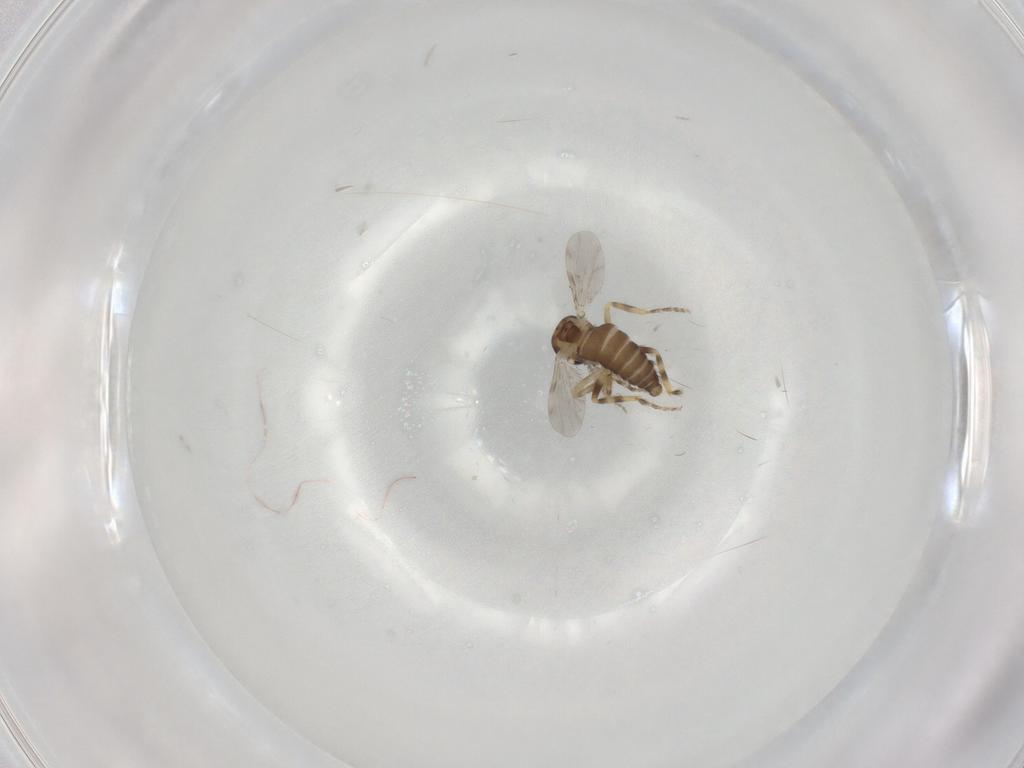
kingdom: Animalia
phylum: Arthropoda
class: Insecta
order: Diptera
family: Ceratopogonidae
